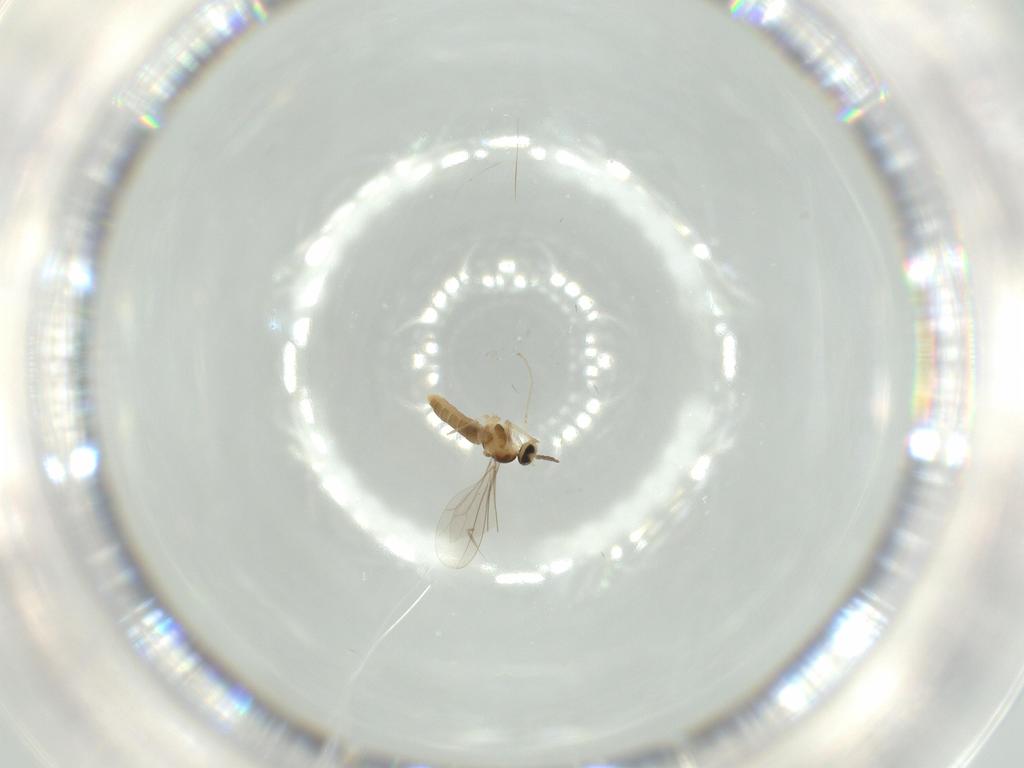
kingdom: Animalia
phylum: Arthropoda
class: Insecta
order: Diptera
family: Cecidomyiidae
